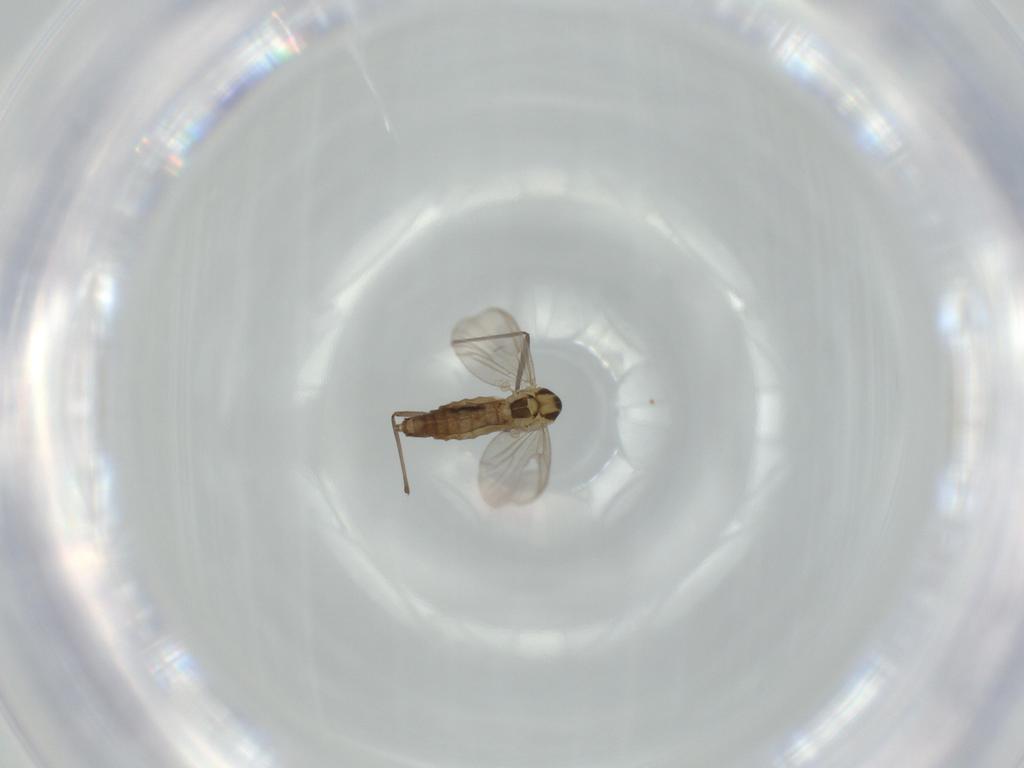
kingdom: Animalia
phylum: Arthropoda
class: Insecta
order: Diptera
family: Chironomidae
